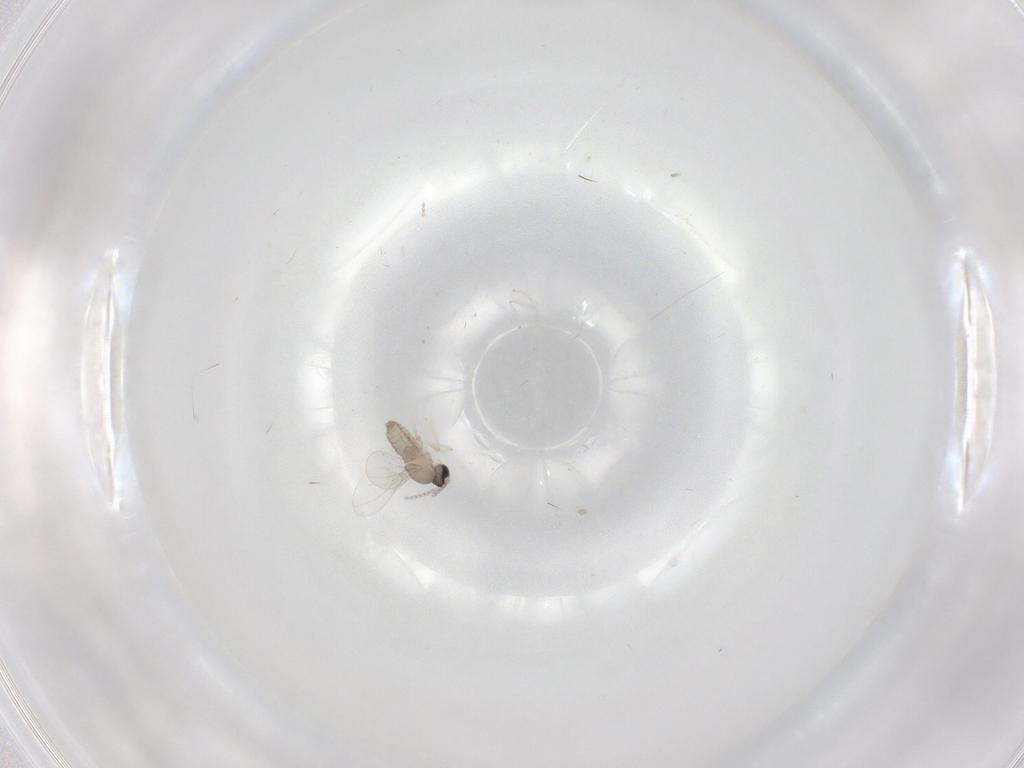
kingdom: Animalia
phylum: Arthropoda
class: Insecta
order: Diptera
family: Cecidomyiidae
